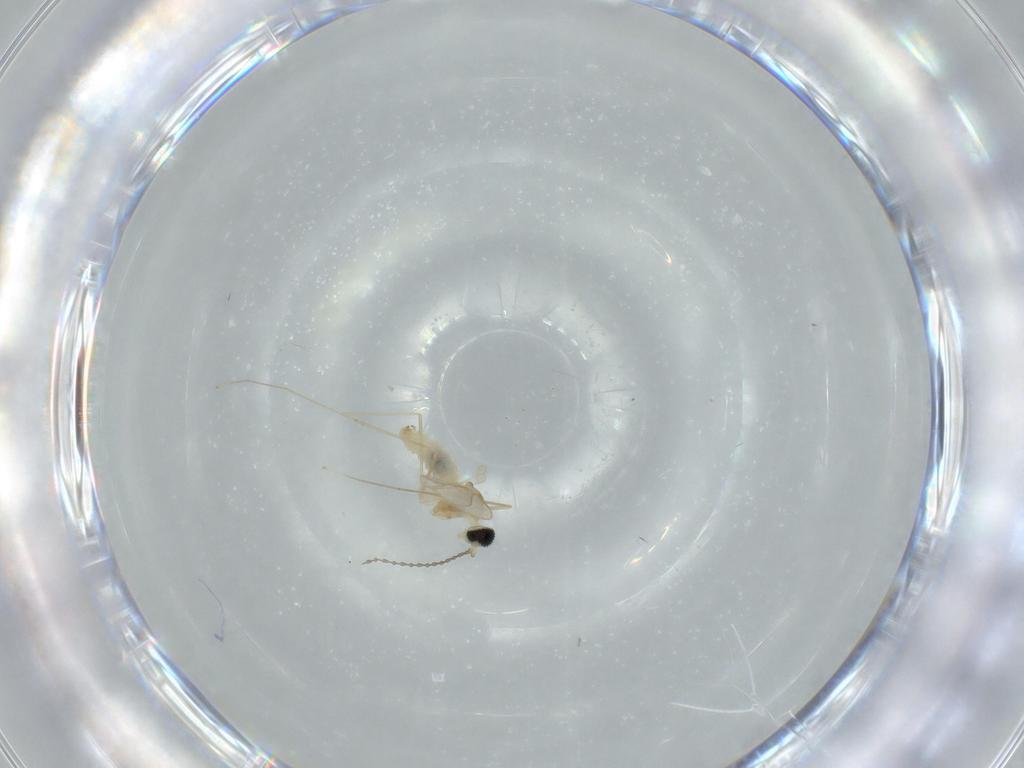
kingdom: Animalia
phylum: Arthropoda
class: Insecta
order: Diptera
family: Cecidomyiidae
